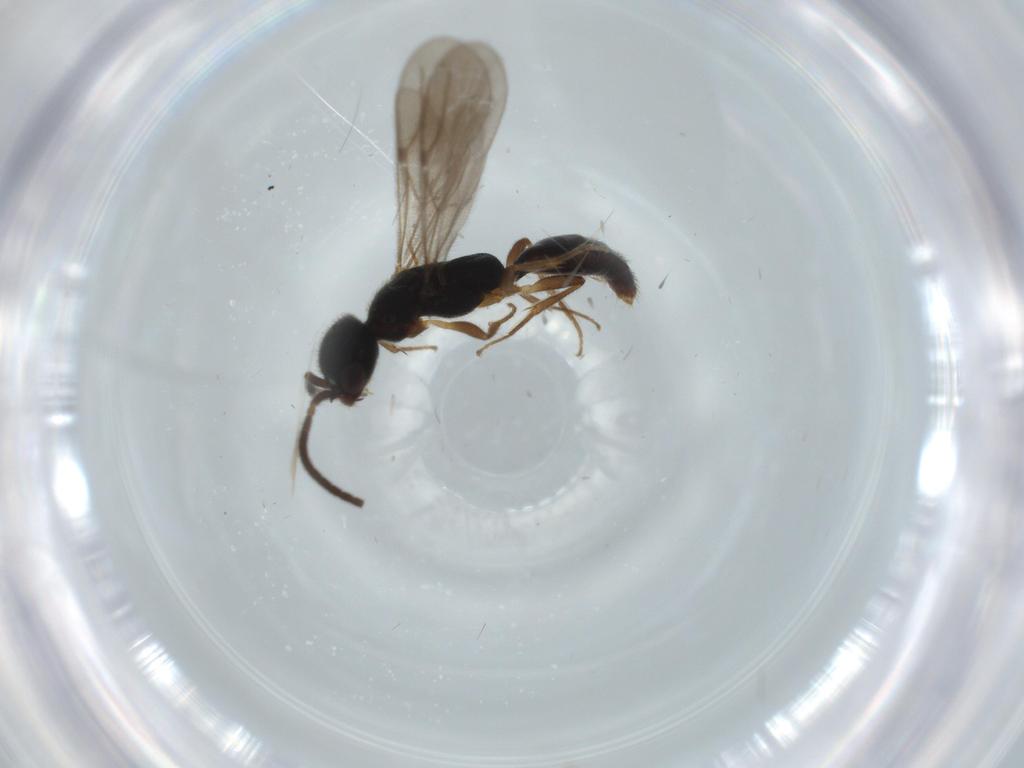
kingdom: Animalia
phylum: Arthropoda
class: Insecta
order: Hymenoptera
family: Bethylidae
